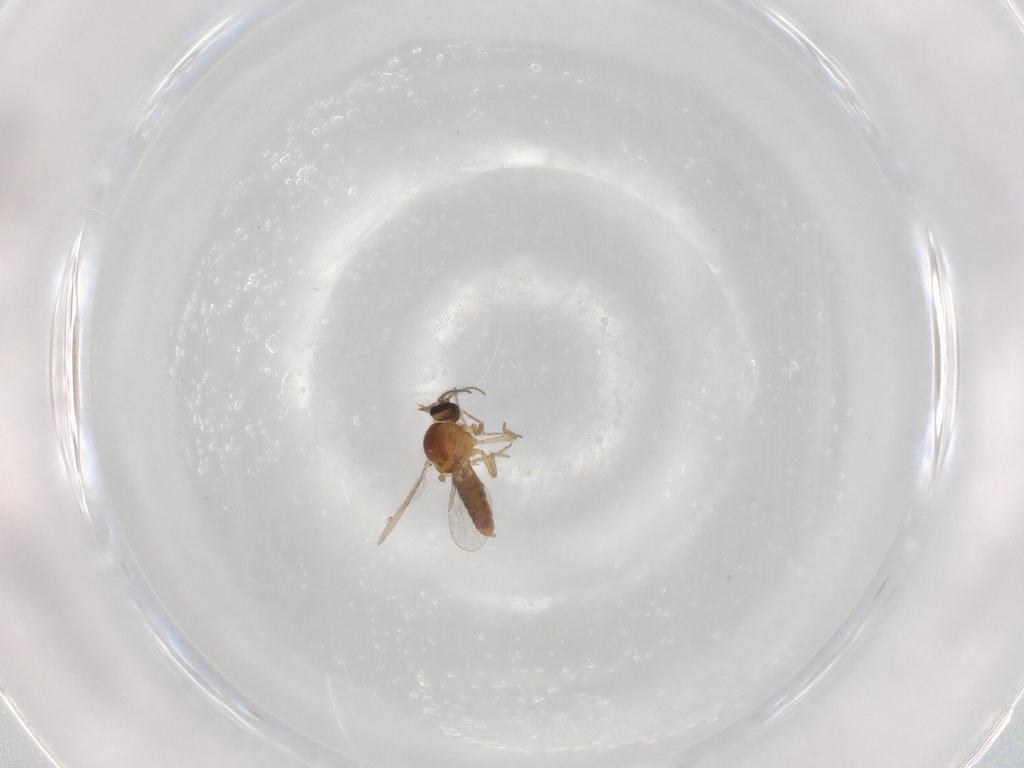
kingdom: Animalia
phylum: Arthropoda
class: Insecta
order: Diptera
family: Ceratopogonidae
